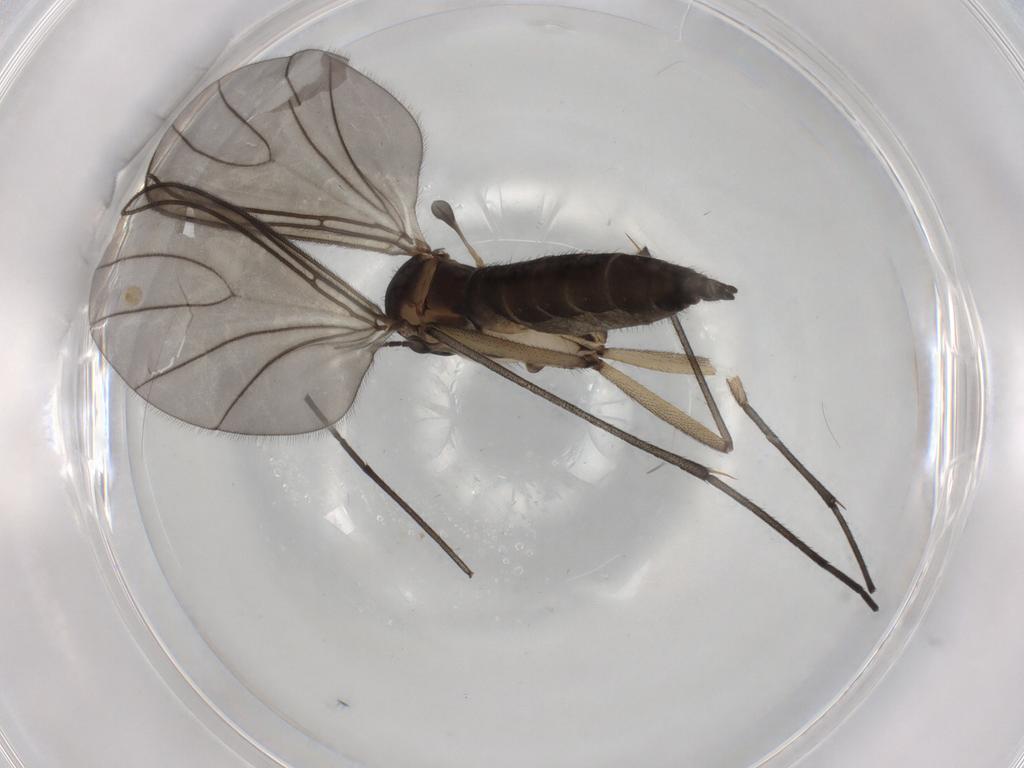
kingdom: Animalia
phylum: Arthropoda
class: Insecta
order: Diptera
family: Sciaridae
